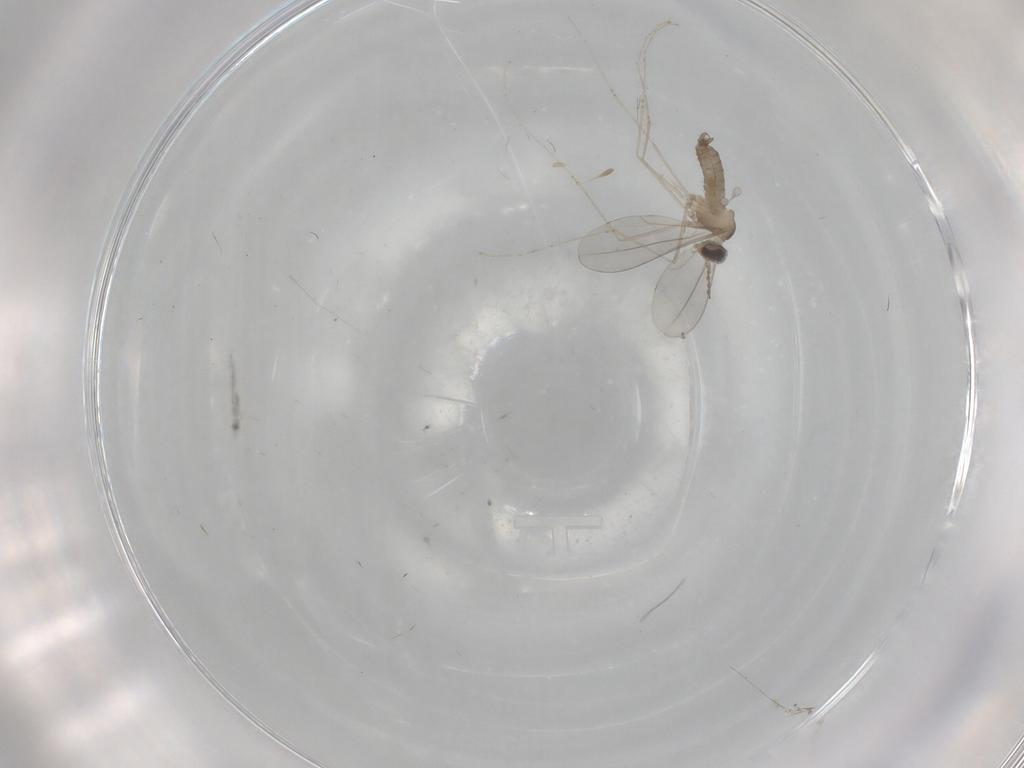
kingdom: Animalia
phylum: Arthropoda
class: Insecta
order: Diptera
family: Cecidomyiidae
